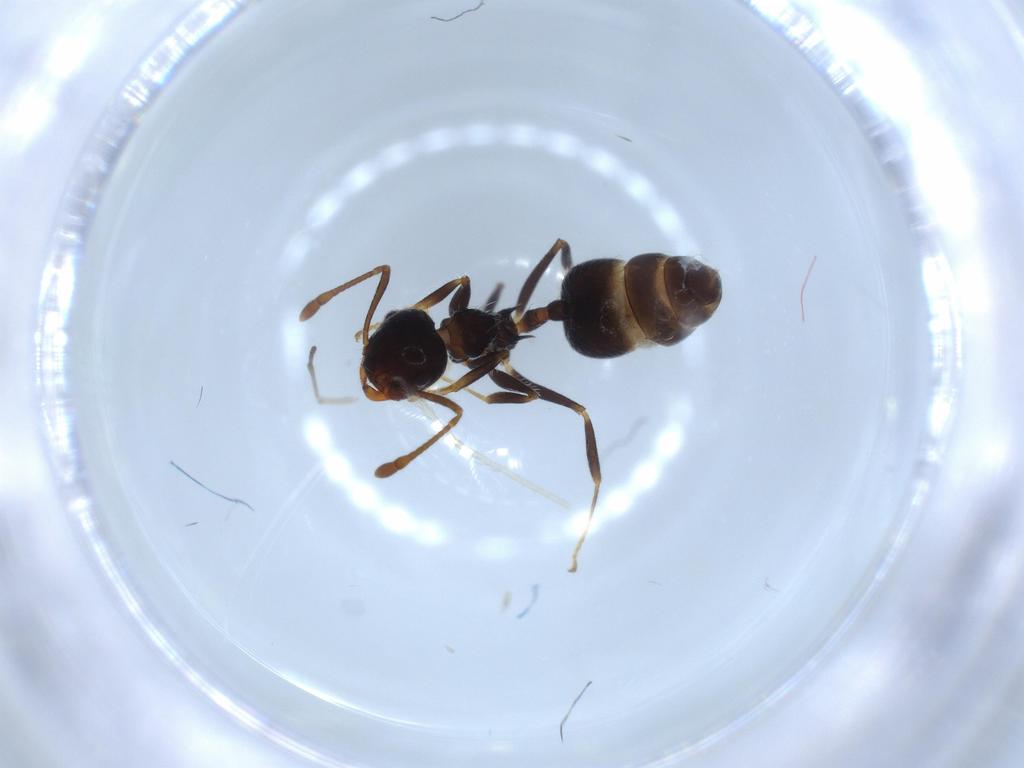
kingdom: Animalia
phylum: Arthropoda
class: Insecta
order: Hymenoptera
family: Formicidae
